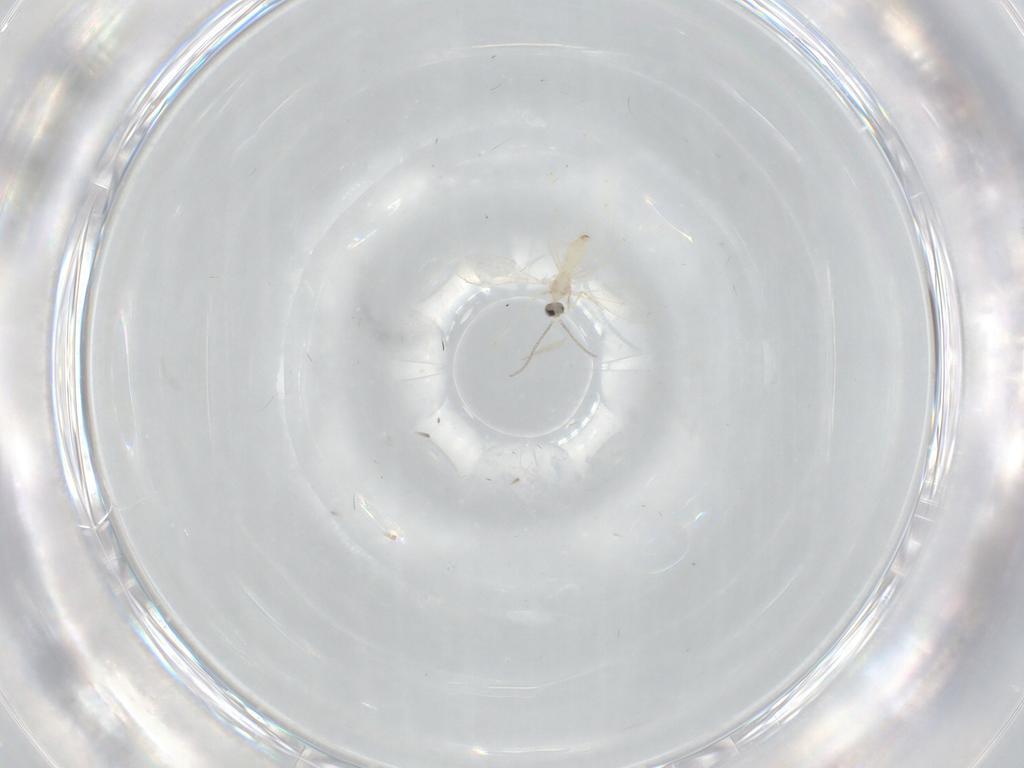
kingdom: Animalia
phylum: Arthropoda
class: Insecta
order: Diptera
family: Cecidomyiidae
